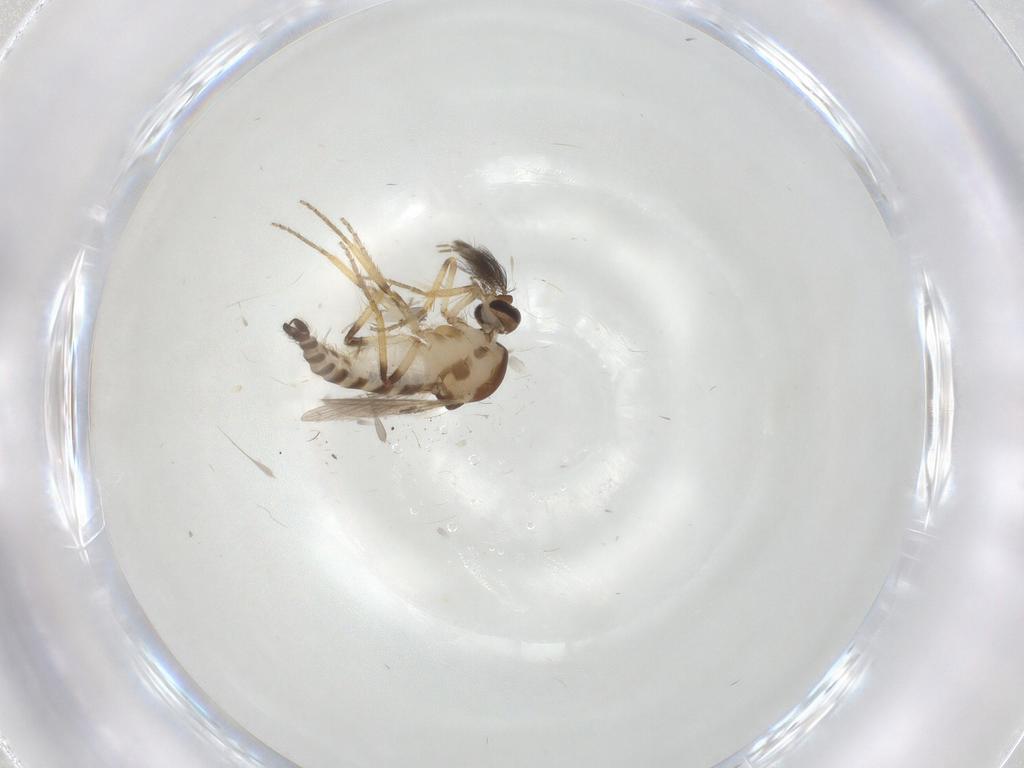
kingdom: Animalia
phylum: Arthropoda
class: Insecta
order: Diptera
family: Ceratopogonidae
